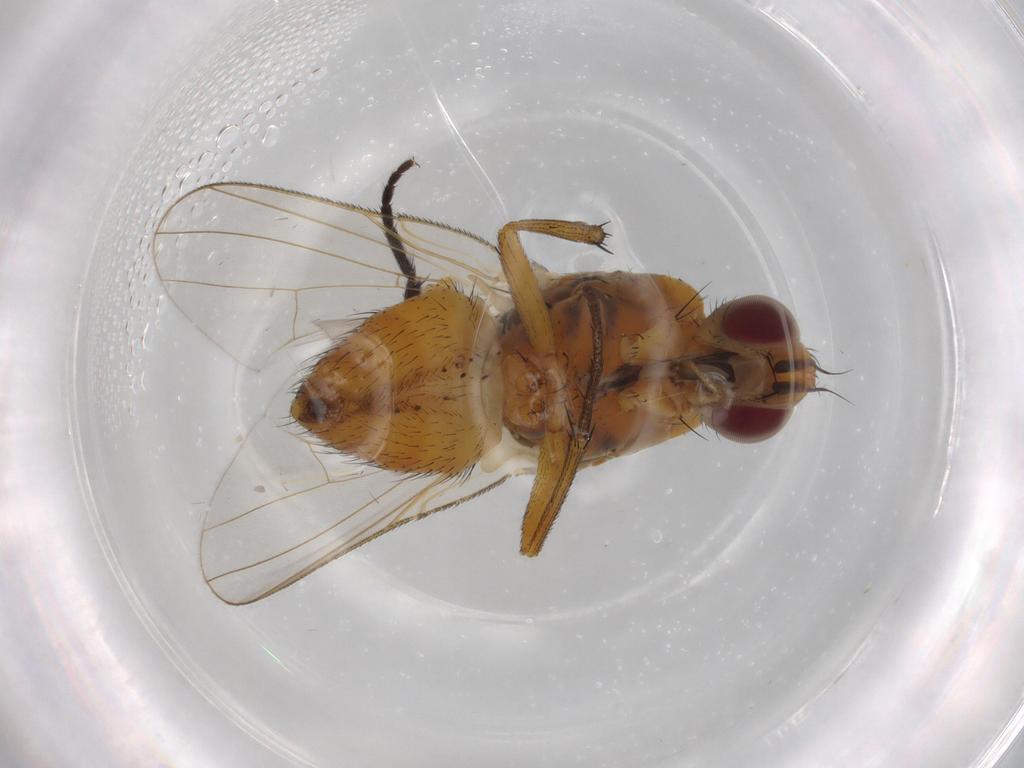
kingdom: Animalia
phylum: Arthropoda
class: Insecta
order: Diptera
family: Muscidae
